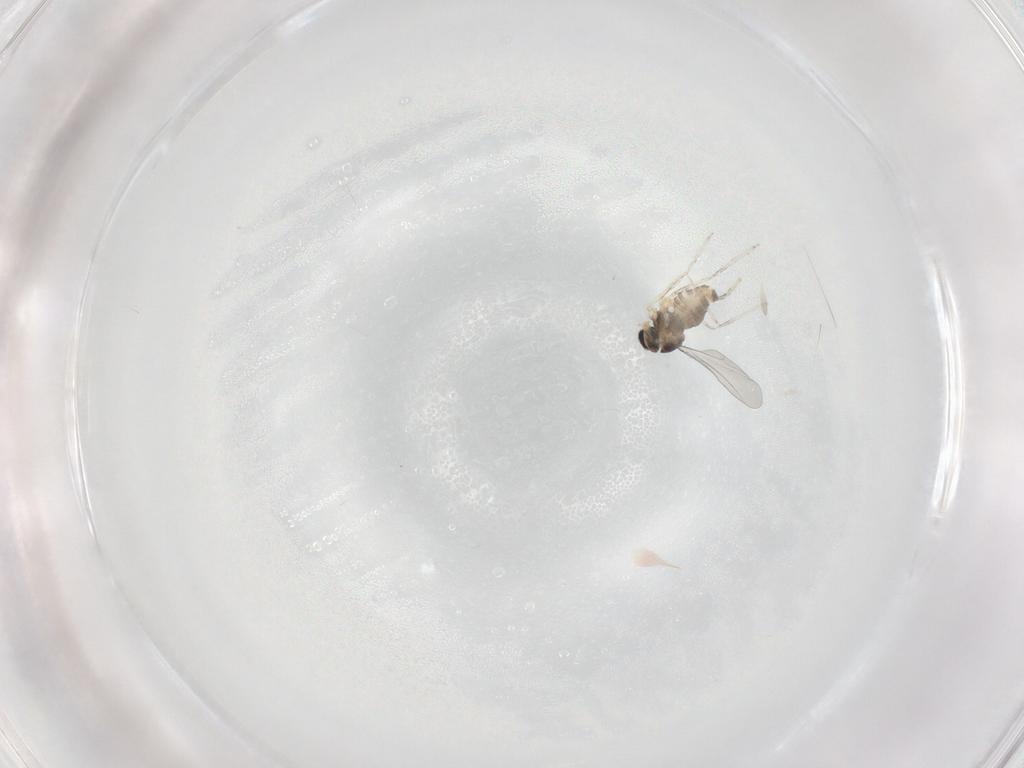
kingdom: Animalia
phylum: Arthropoda
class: Insecta
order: Diptera
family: Cecidomyiidae
